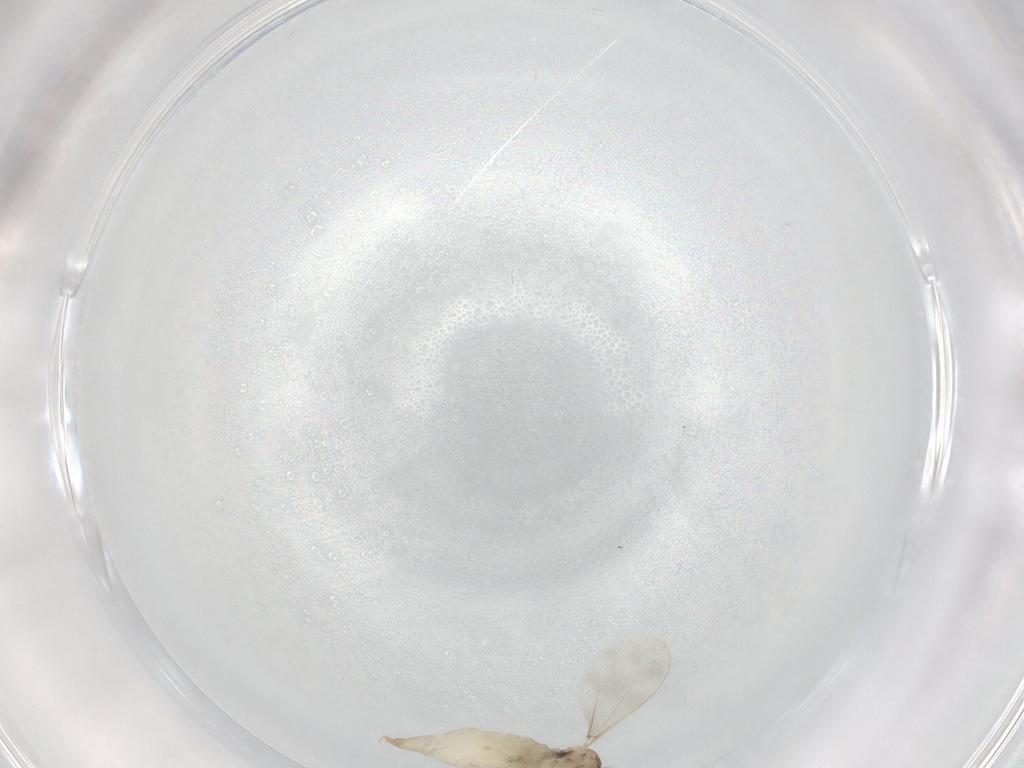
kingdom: Animalia
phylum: Arthropoda
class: Insecta
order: Diptera
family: Cecidomyiidae
